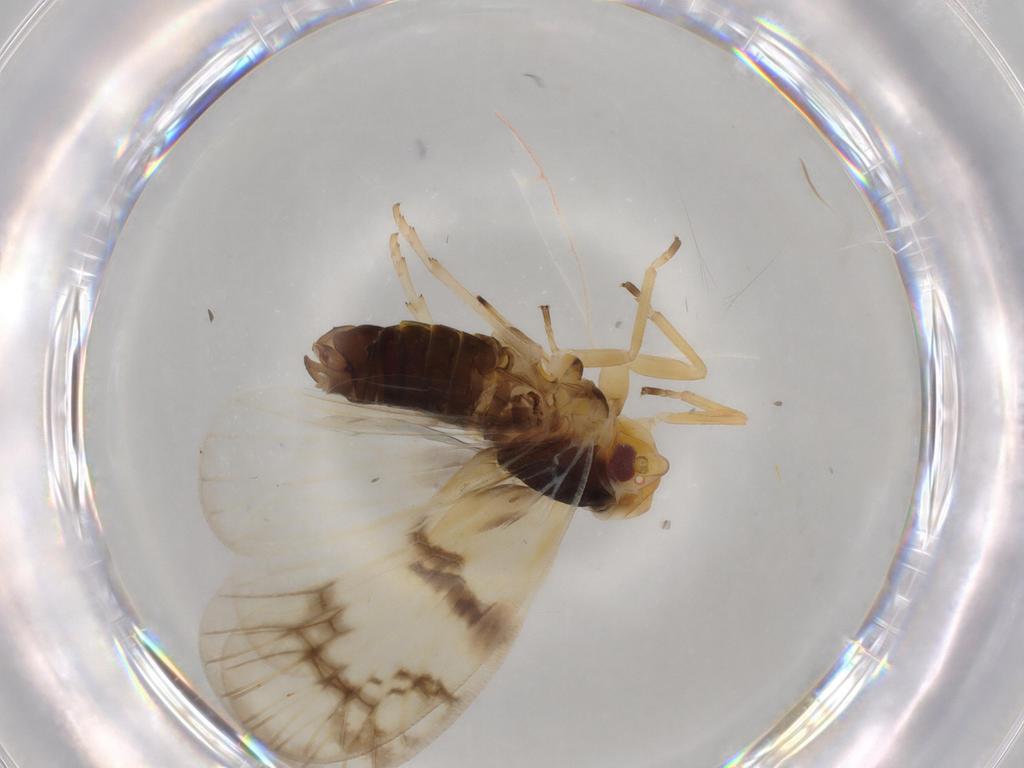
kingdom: Animalia
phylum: Arthropoda
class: Insecta
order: Hemiptera
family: Cixiidae
